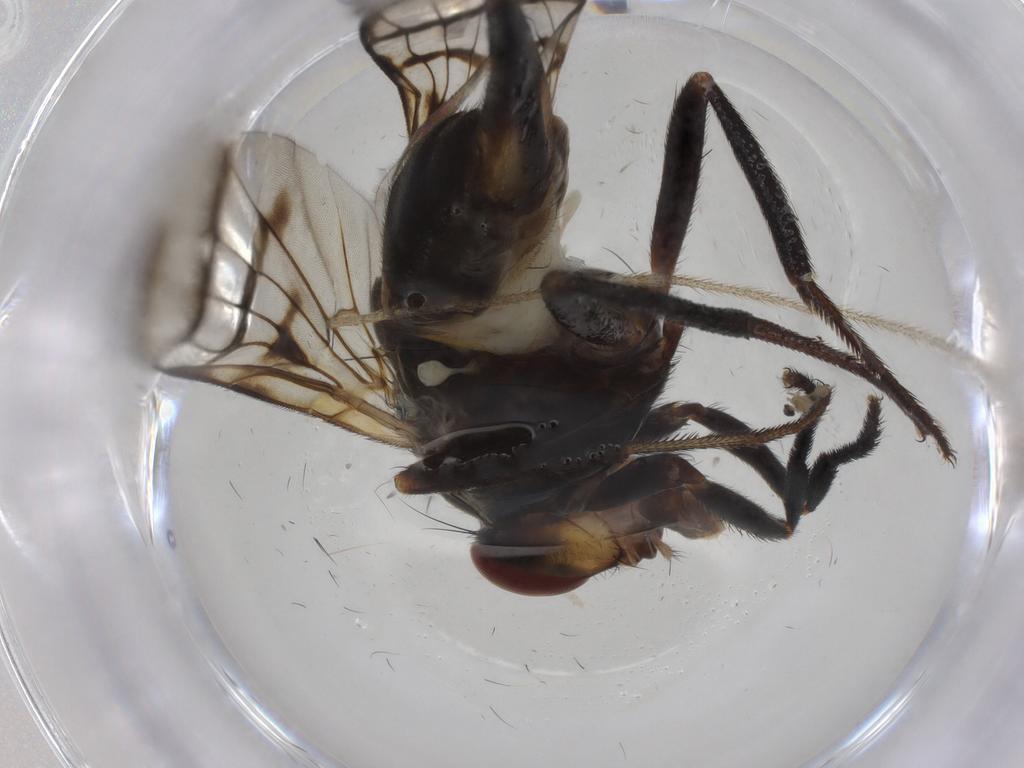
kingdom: Animalia
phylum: Arthropoda
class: Insecta
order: Diptera
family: Ulidiidae
